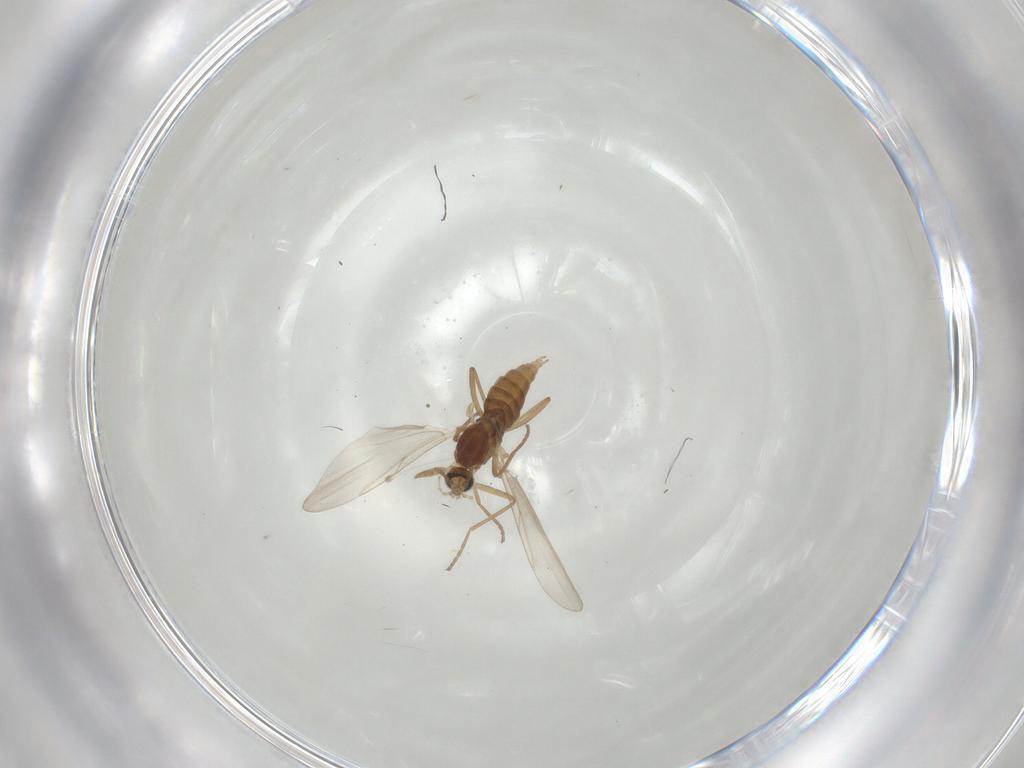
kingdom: Animalia
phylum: Arthropoda
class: Insecta
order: Diptera
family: Cecidomyiidae
